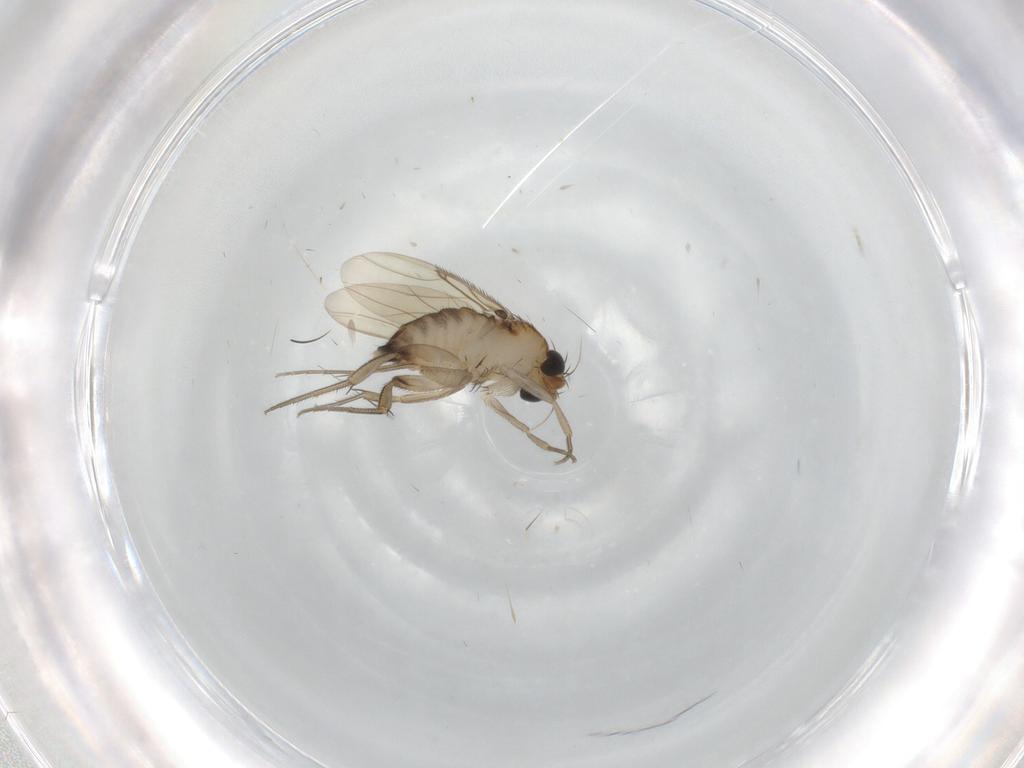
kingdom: Animalia
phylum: Arthropoda
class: Insecta
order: Diptera
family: Phoridae
